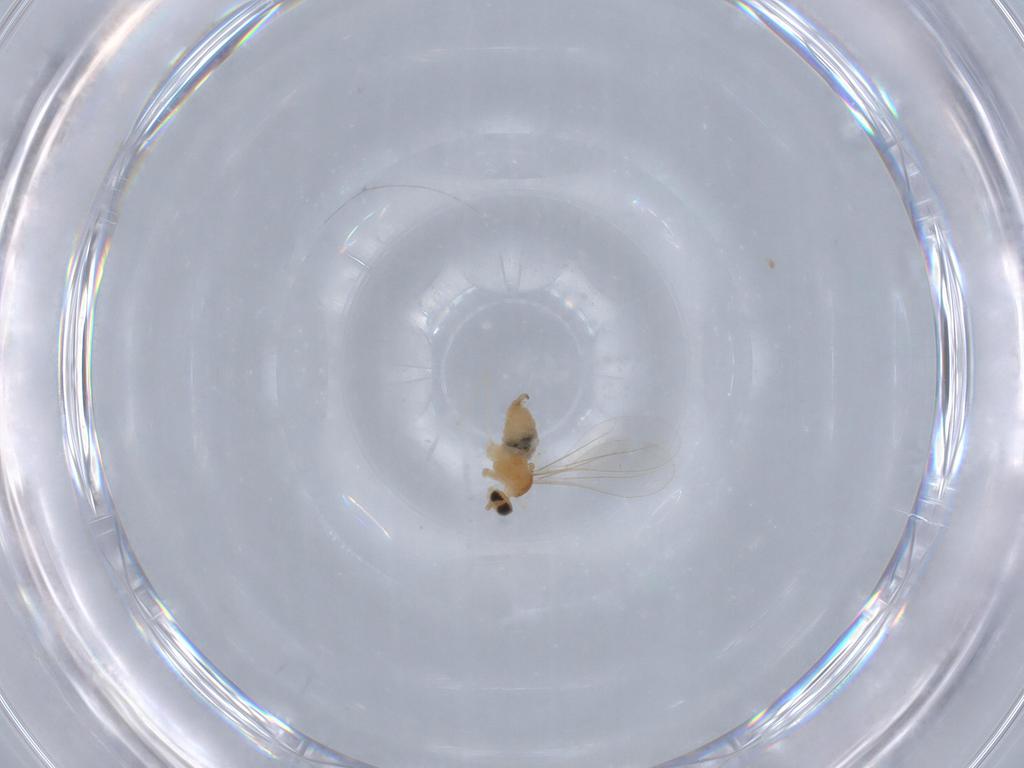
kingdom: Animalia
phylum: Arthropoda
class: Insecta
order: Diptera
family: Cecidomyiidae
